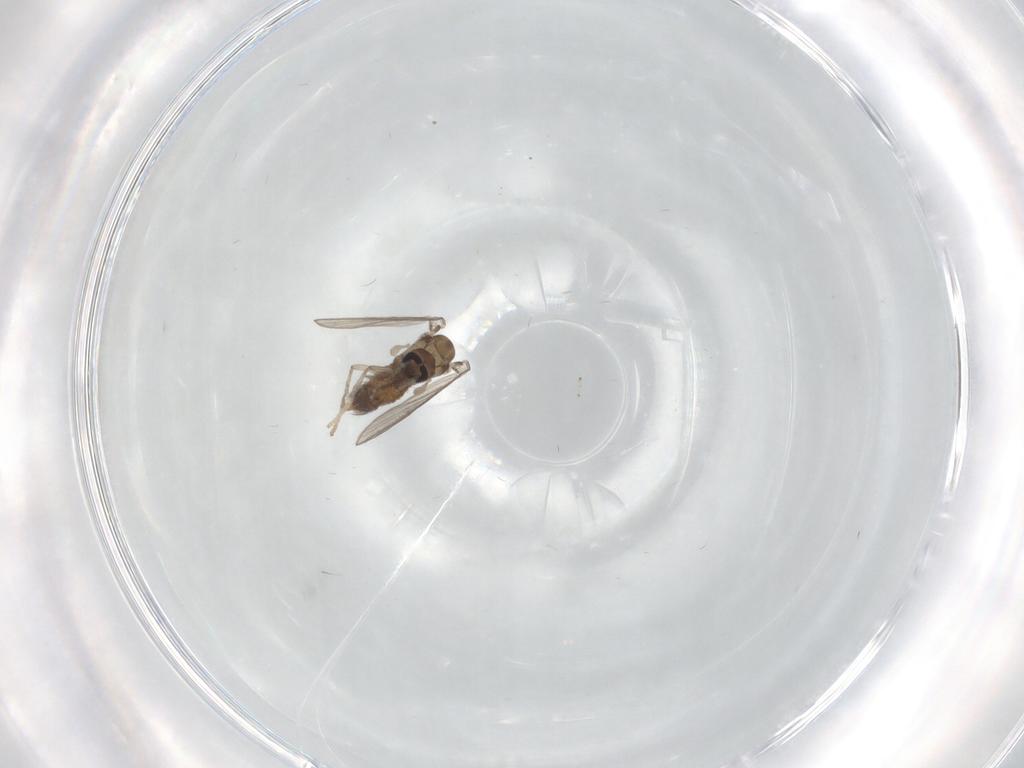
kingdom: Animalia
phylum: Arthropoda
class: Insecta
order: Diptera
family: Psychodidae
